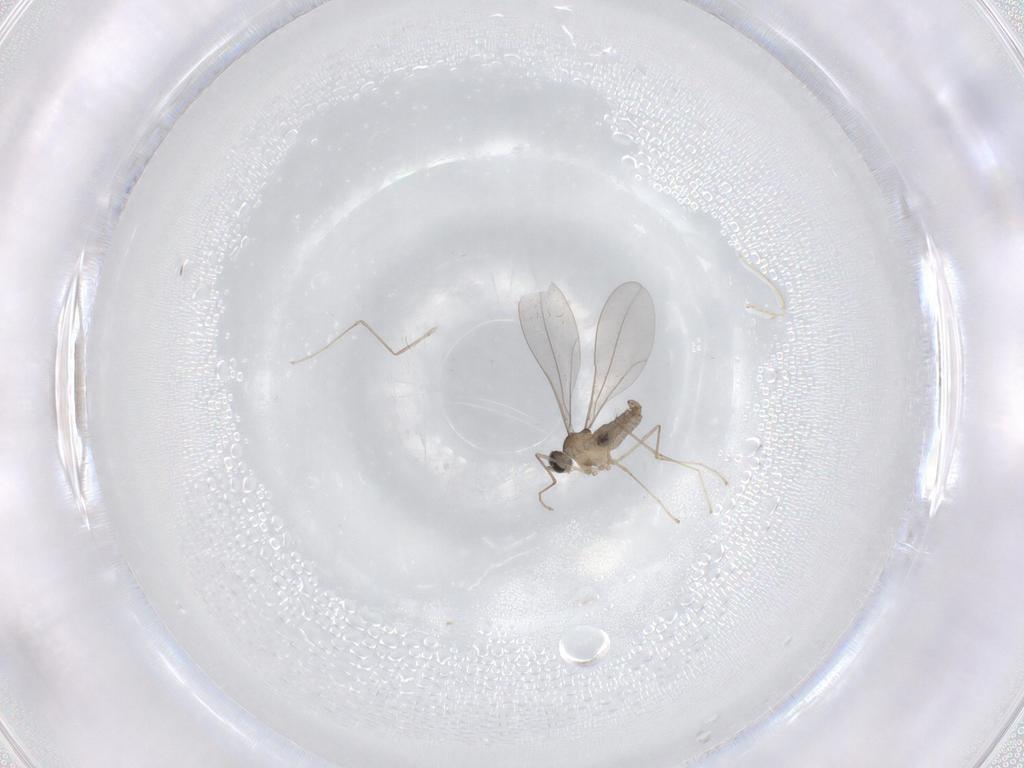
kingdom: Animalia
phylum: Arthropoda
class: Insecta
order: Diptera
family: Cecidomyiidae
